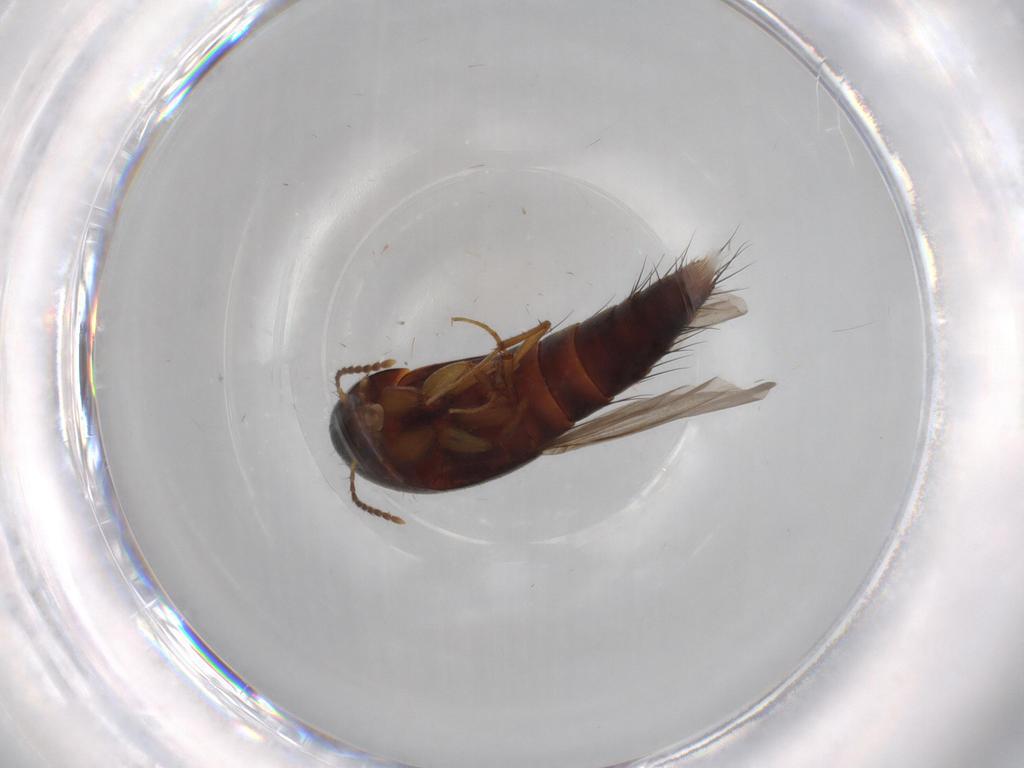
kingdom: Animalia
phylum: Arthropoda
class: Insecta
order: Coleoptera
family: Staphylinidae
